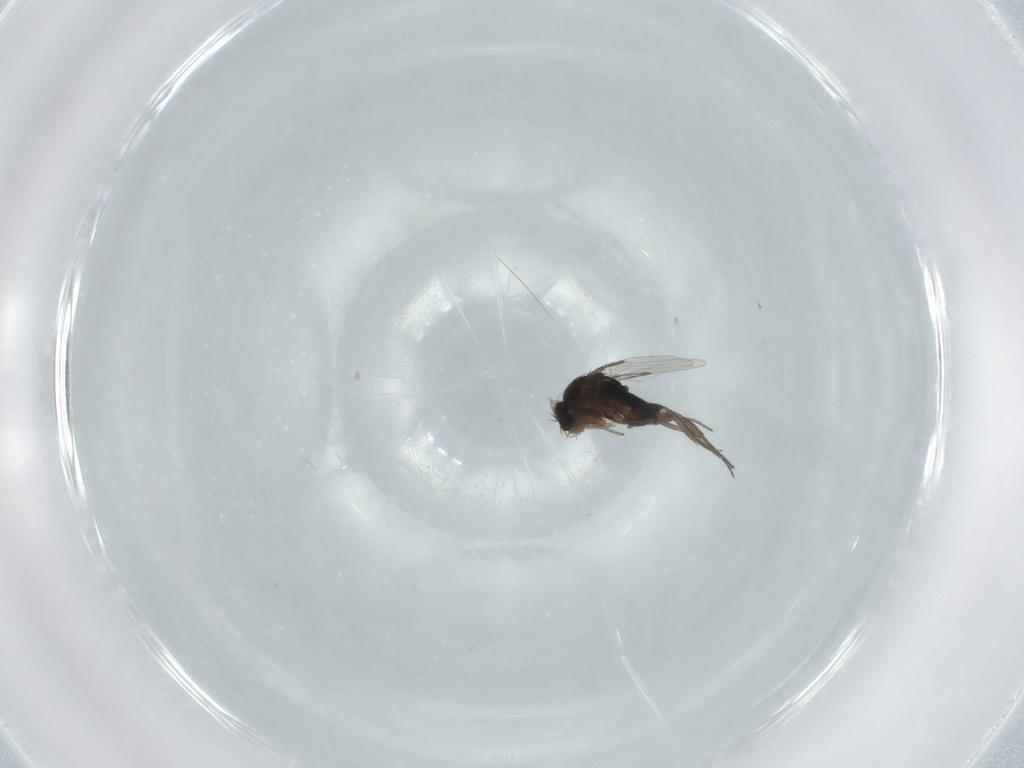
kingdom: Animalia
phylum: Arthropoda
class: Insecta
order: Diptera
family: Phoridae
